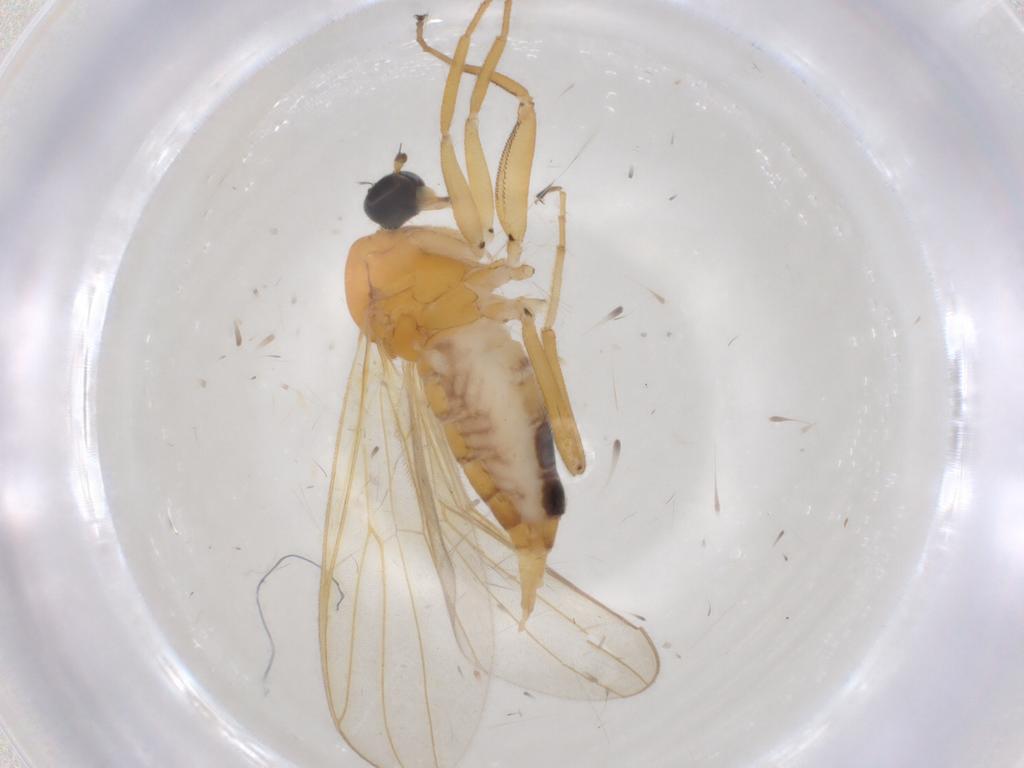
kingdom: Animalia
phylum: Arthropoda
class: Insecta
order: Diptera
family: Hybotidae
